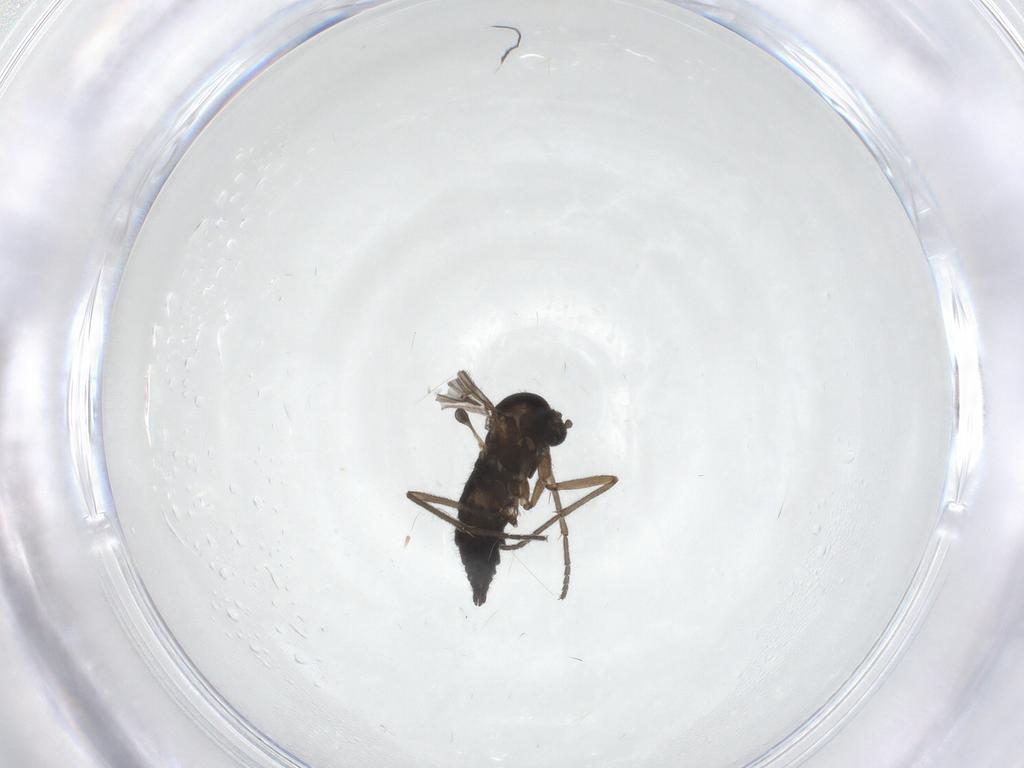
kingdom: Animalia
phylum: Arthropoda
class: Insecta
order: Diptera
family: Sciaridae
